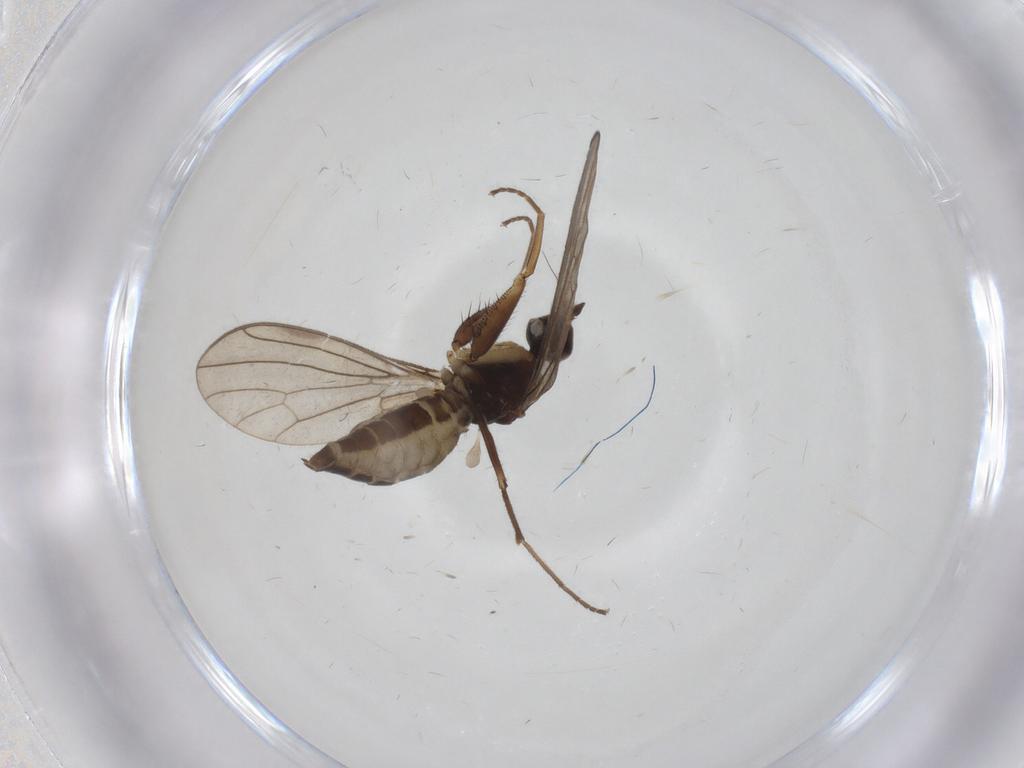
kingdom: Animalia
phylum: Arthropoda
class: Insecta
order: Diptera
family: Empididae
